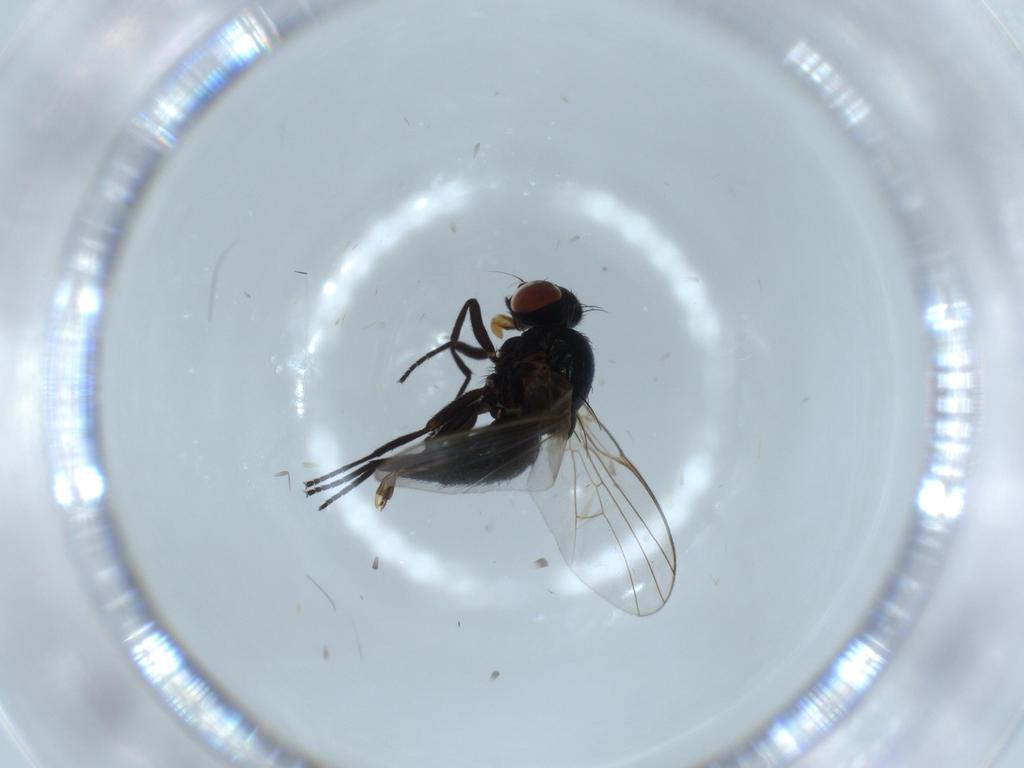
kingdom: Animalia
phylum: Arthropoda
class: Insecta
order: Diptera
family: Agromyzidae
